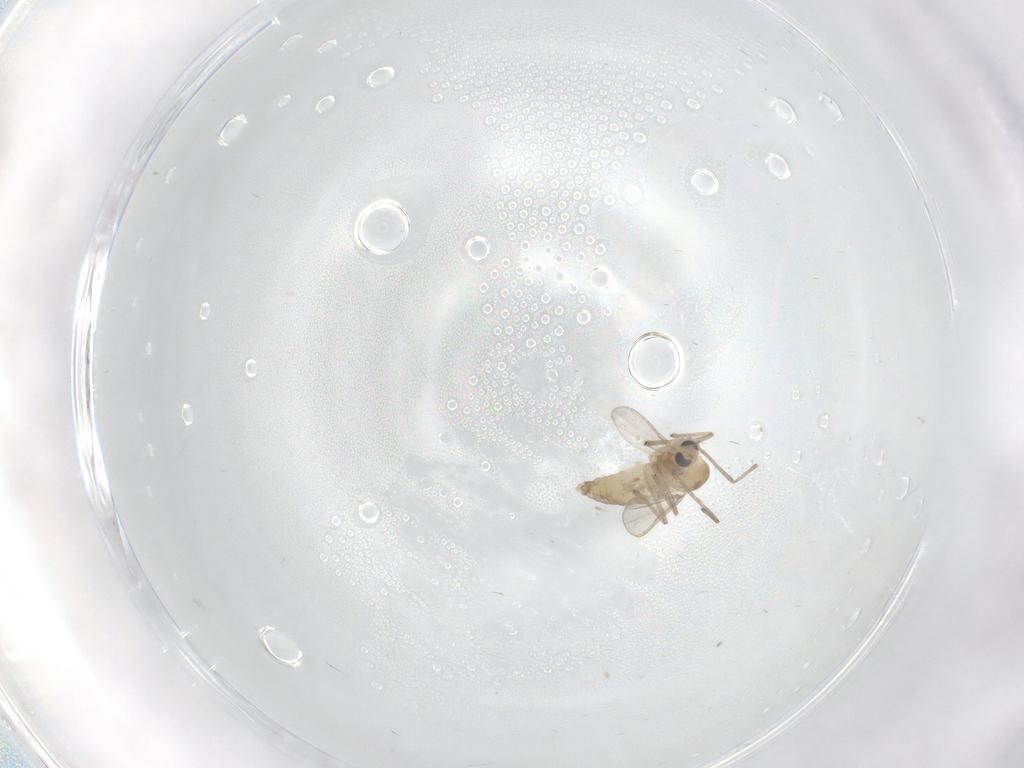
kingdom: Animalia
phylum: Arthropoda
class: Insecta
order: Diptera
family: Chironomidae
